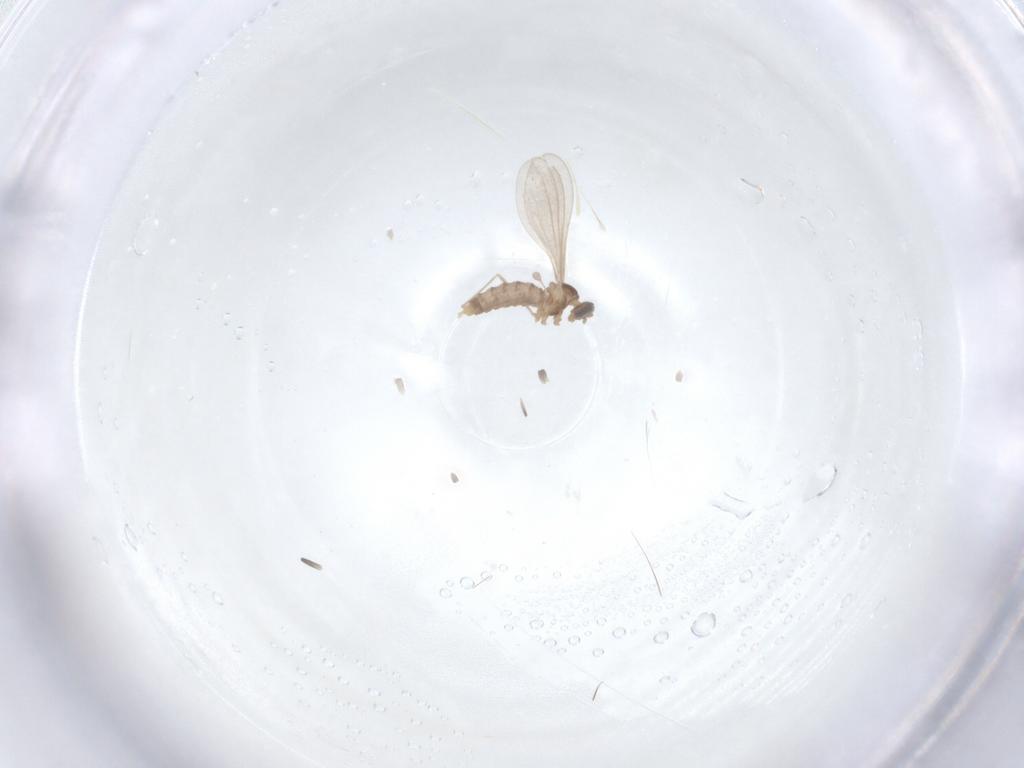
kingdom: Animalia
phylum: Arthropoda
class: Insecta
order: Diptera
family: Cecidomyiidae
